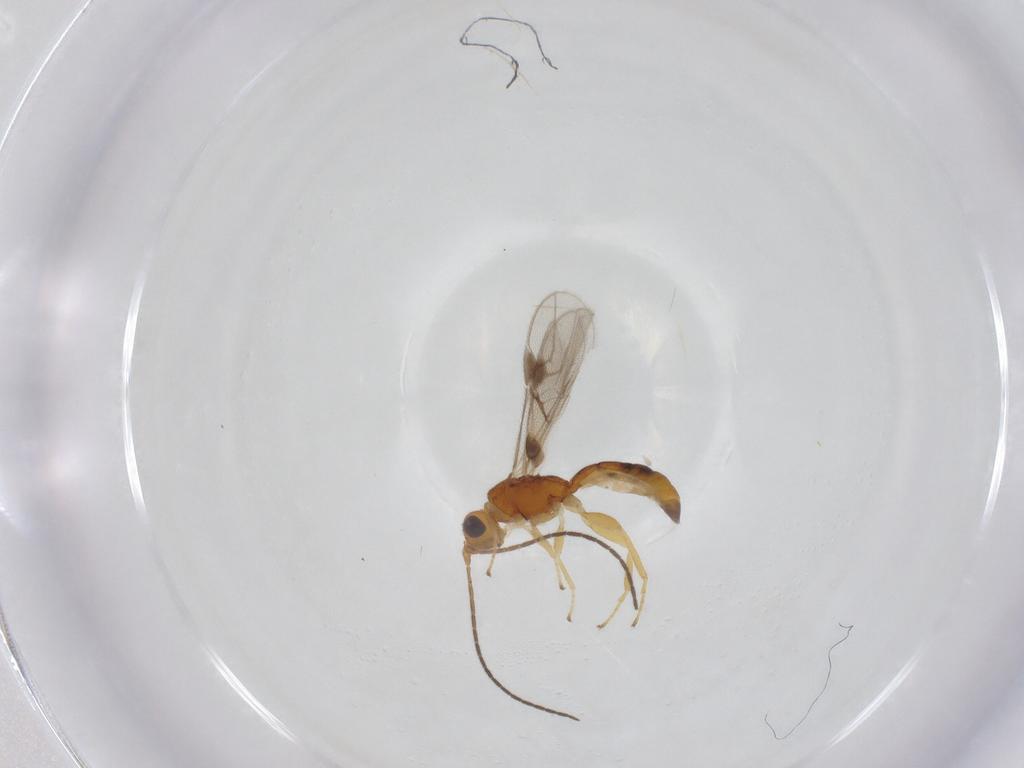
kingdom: Animalia
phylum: Arthropoda
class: Insecta
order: Hymenoptera
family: Braconidae
